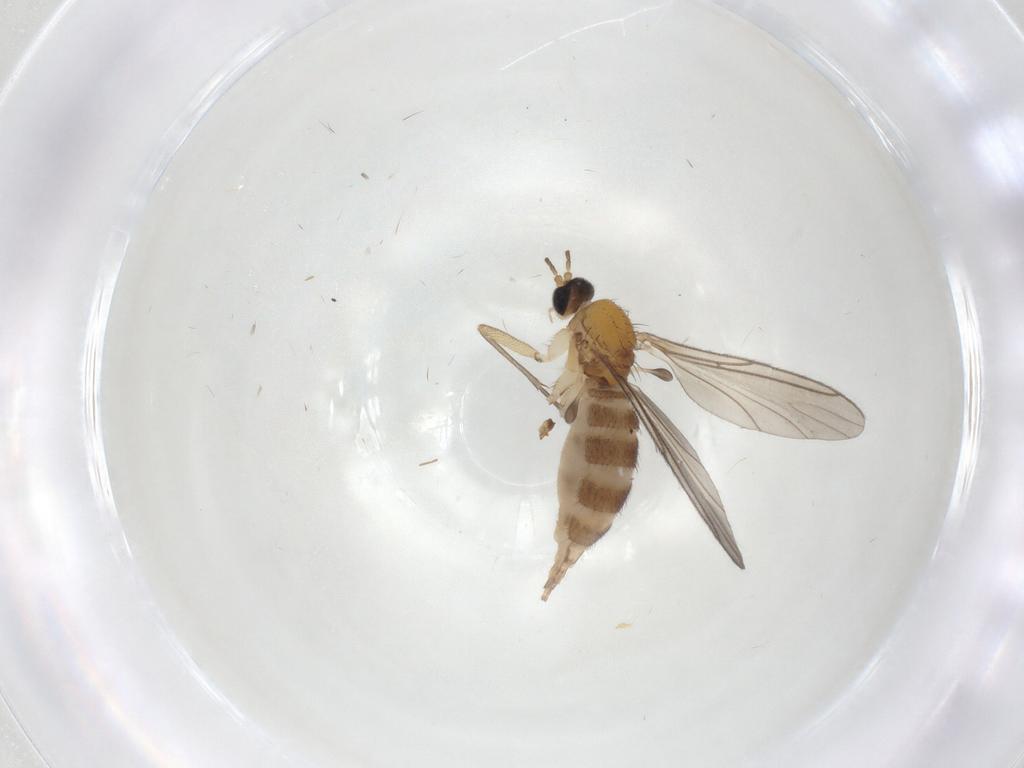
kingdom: Animalia
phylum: Arthropoda
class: Insecta
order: Diptera
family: Sciaridae
